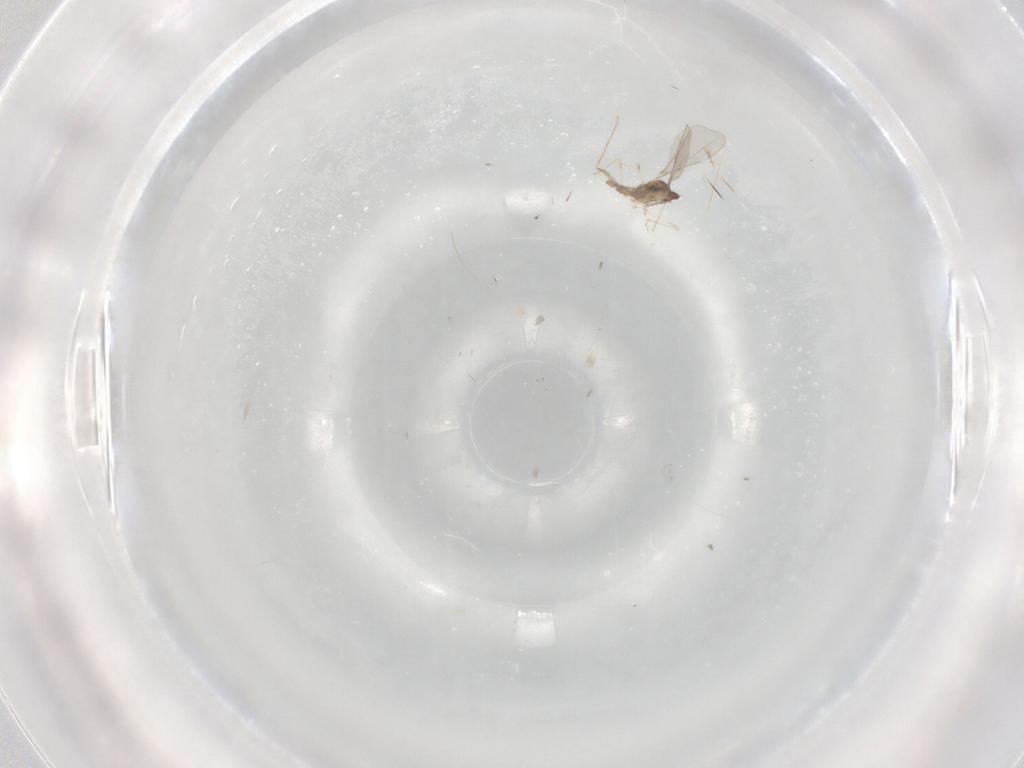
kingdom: Animalia
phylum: Arthropoda
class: Insecta
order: Diptera
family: Cecidomyiidae
